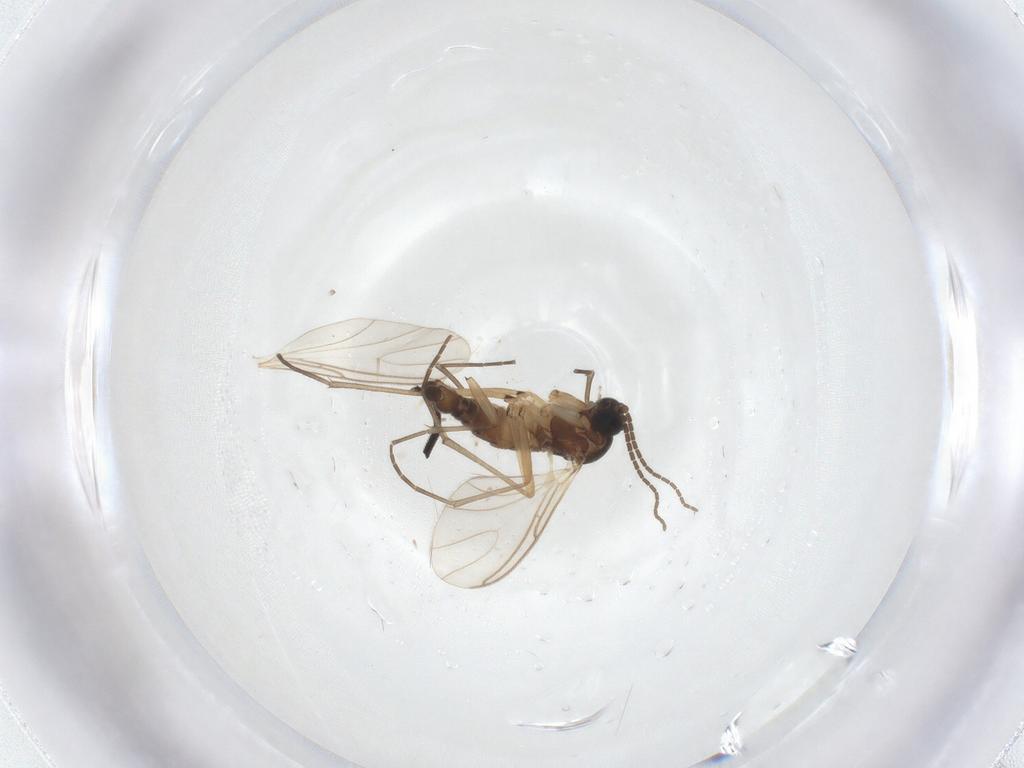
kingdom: Animalia
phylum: Arthropoda
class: Insecta
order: Diptera
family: Tachinidae
